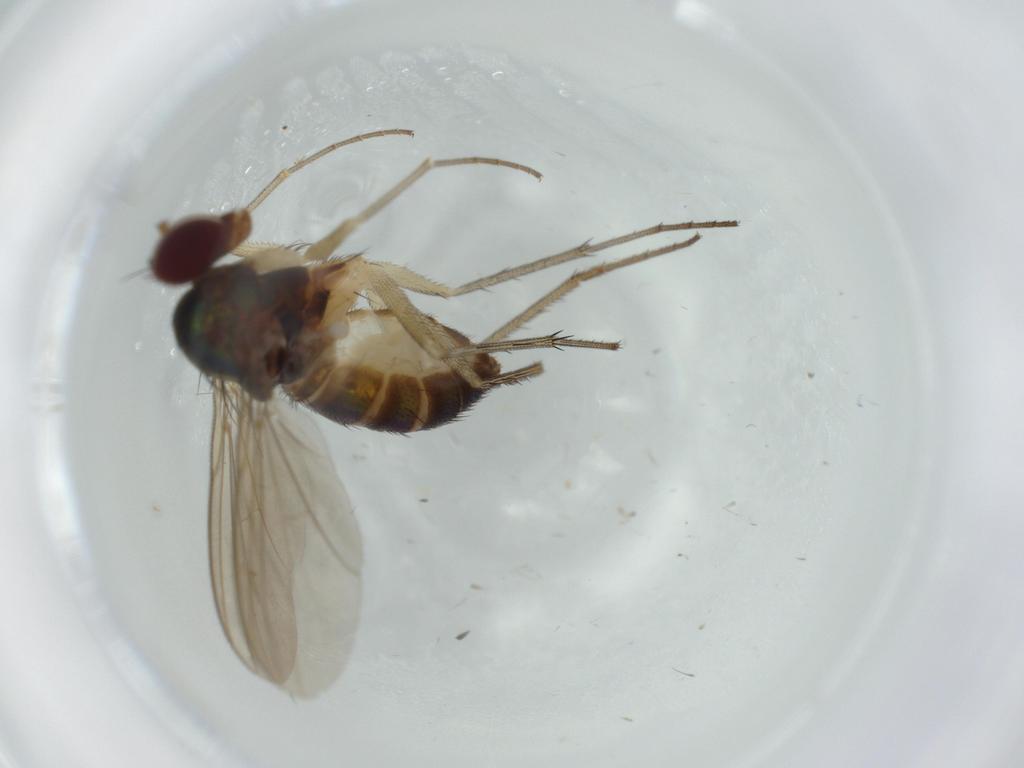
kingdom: Animalia
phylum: Arthropoda
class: Insecta
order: Diptera
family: Dolichopodidae
